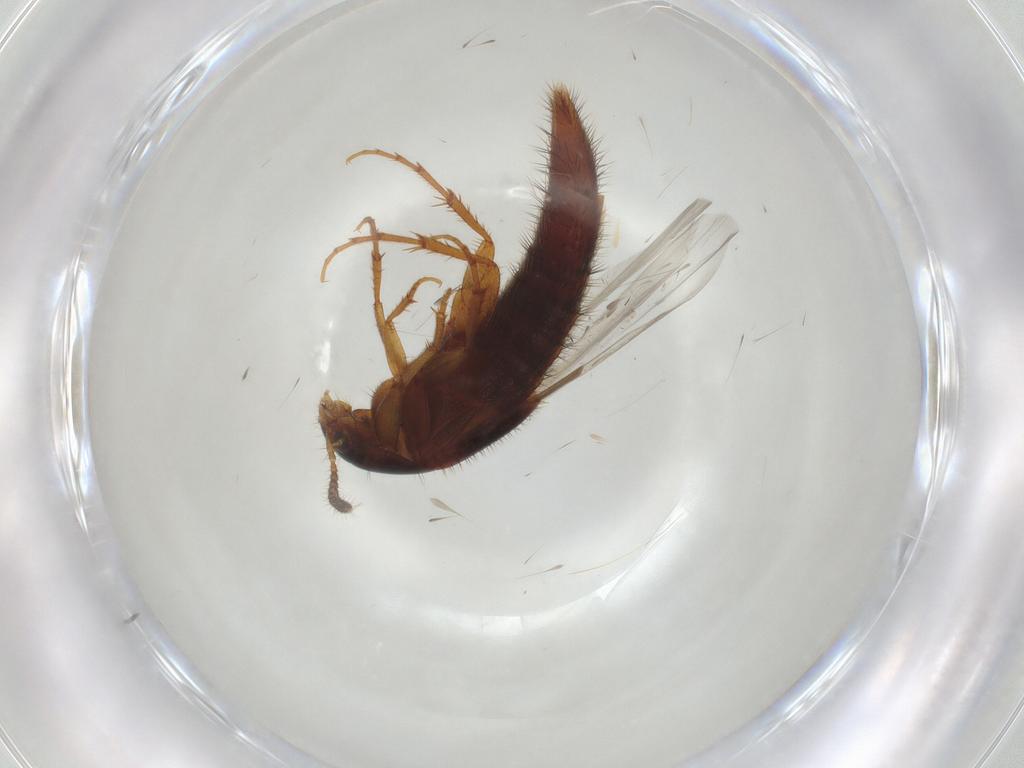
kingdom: Animalia
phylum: Arthropoda
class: Insecta
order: Coleoptera
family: Staphylinidae
